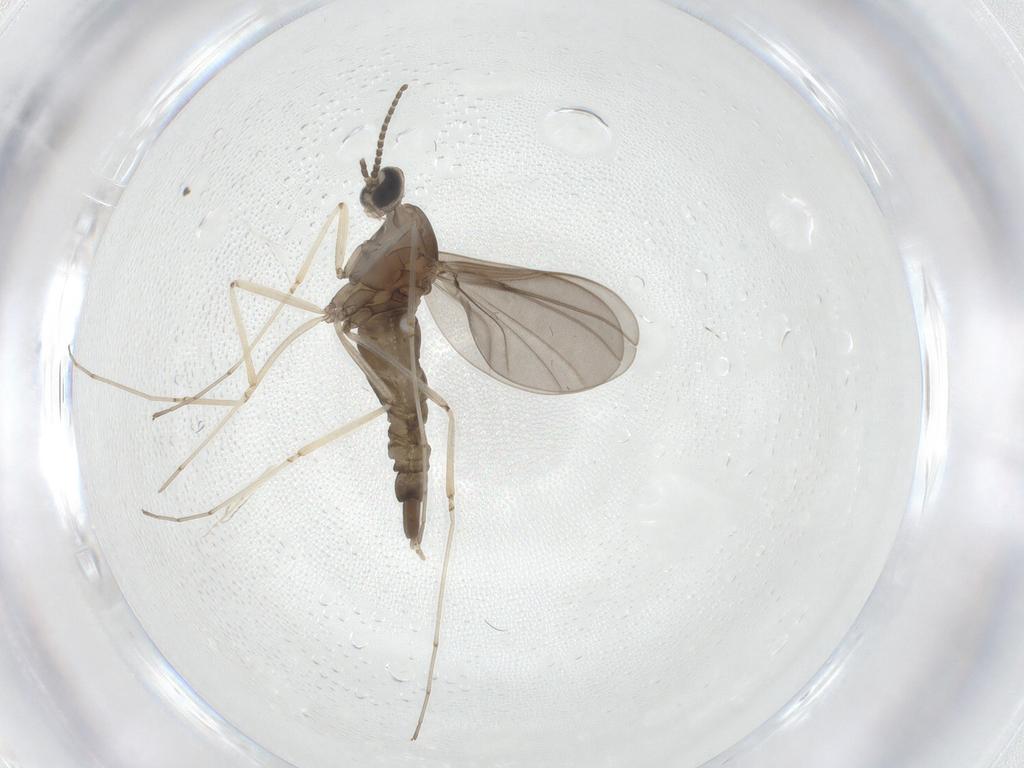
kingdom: Animalia
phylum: Arthropoda
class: Insecta
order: Diptera
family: Cecidomyiidae
